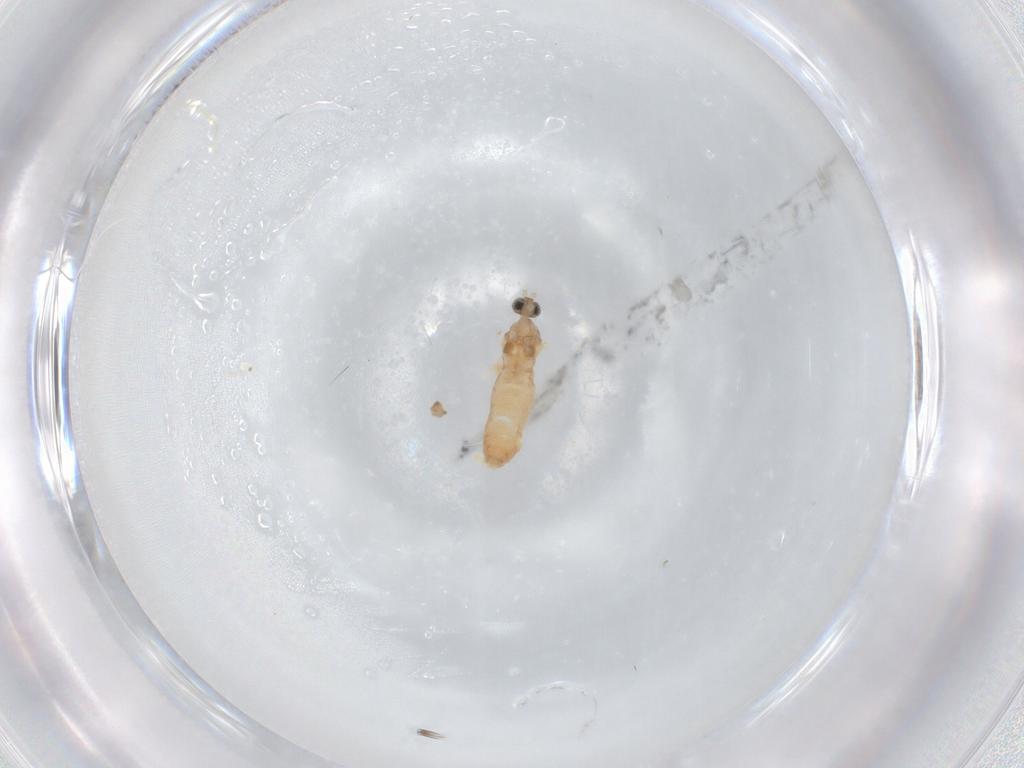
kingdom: Animalia
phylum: Arthropoda
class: Insecta
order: Diptera
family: Cecidomyiidae
